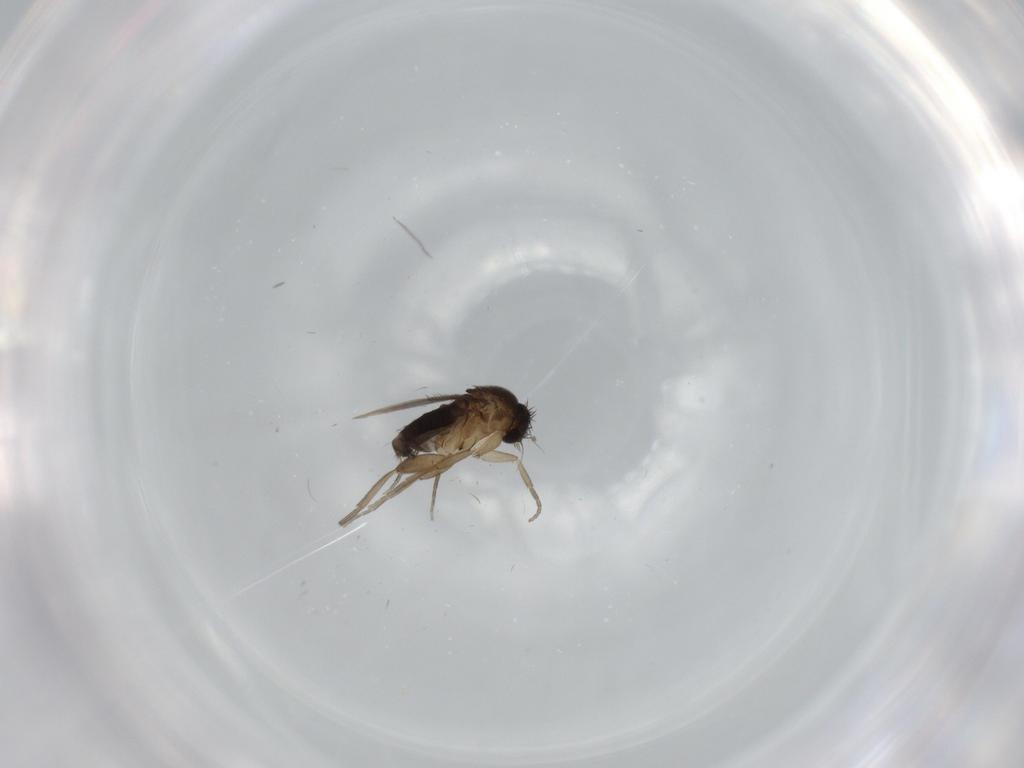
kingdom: Animalia
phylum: Arthropoda
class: Insecta
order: Diptera
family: Phoridae
